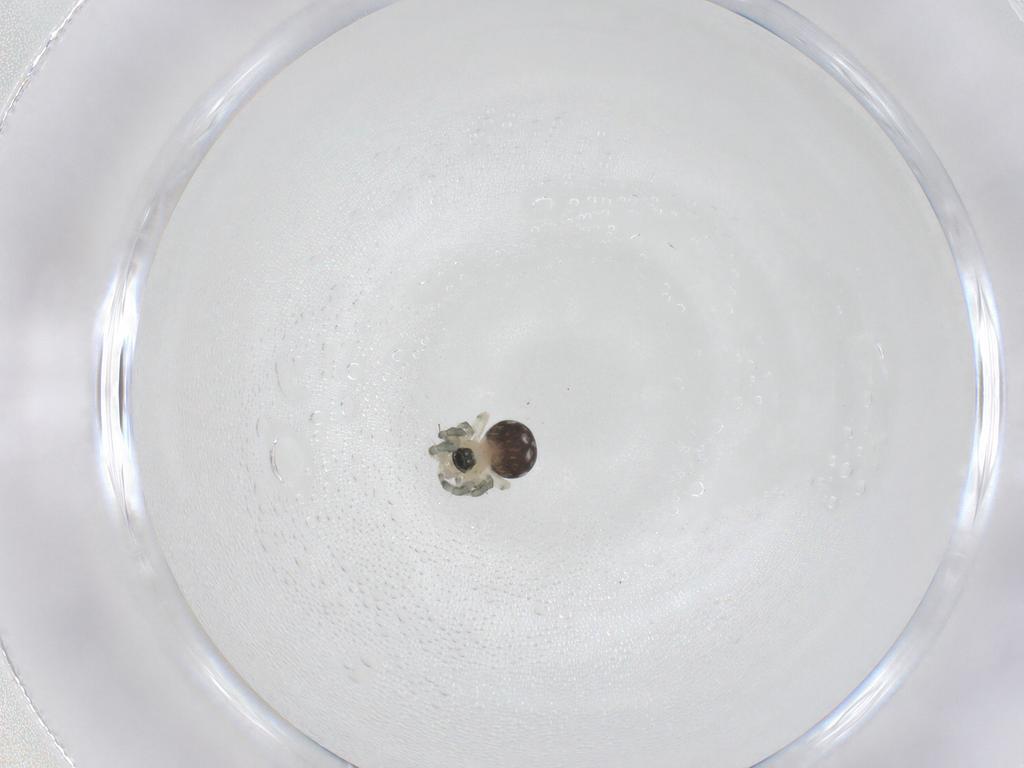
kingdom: Animalia
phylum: Arthropoda
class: Arachnida
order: Araneae
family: Mysmenidae
